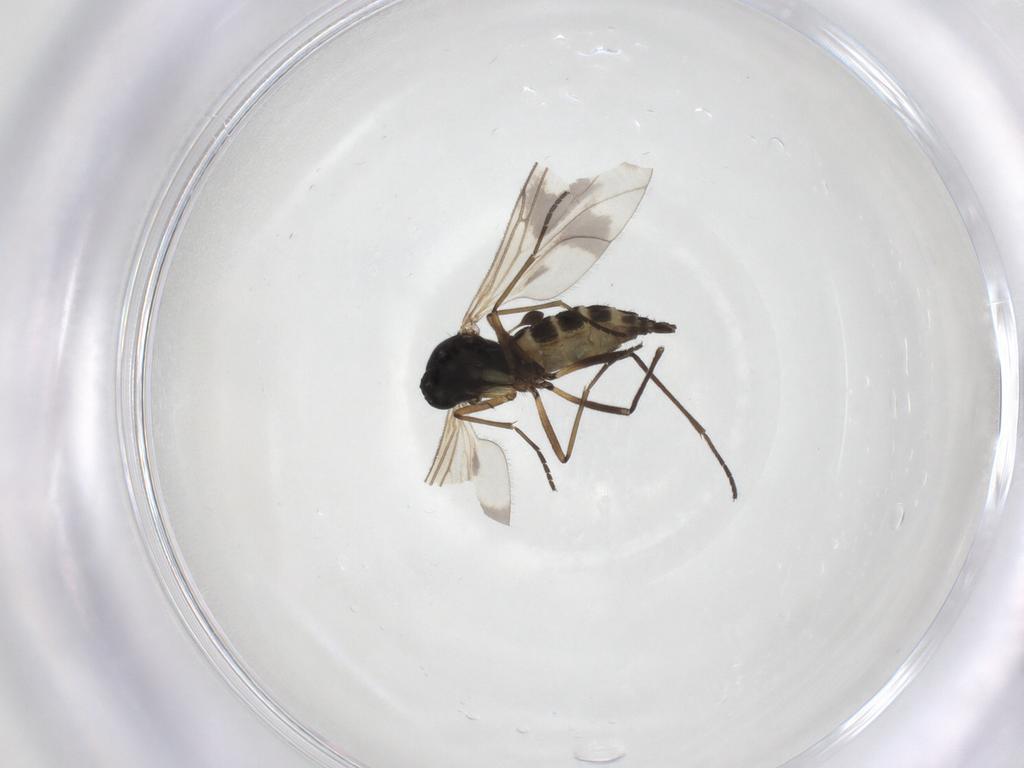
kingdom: Animalia
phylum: Arthropoda
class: Insecta
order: Diptera
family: Sciaridae
